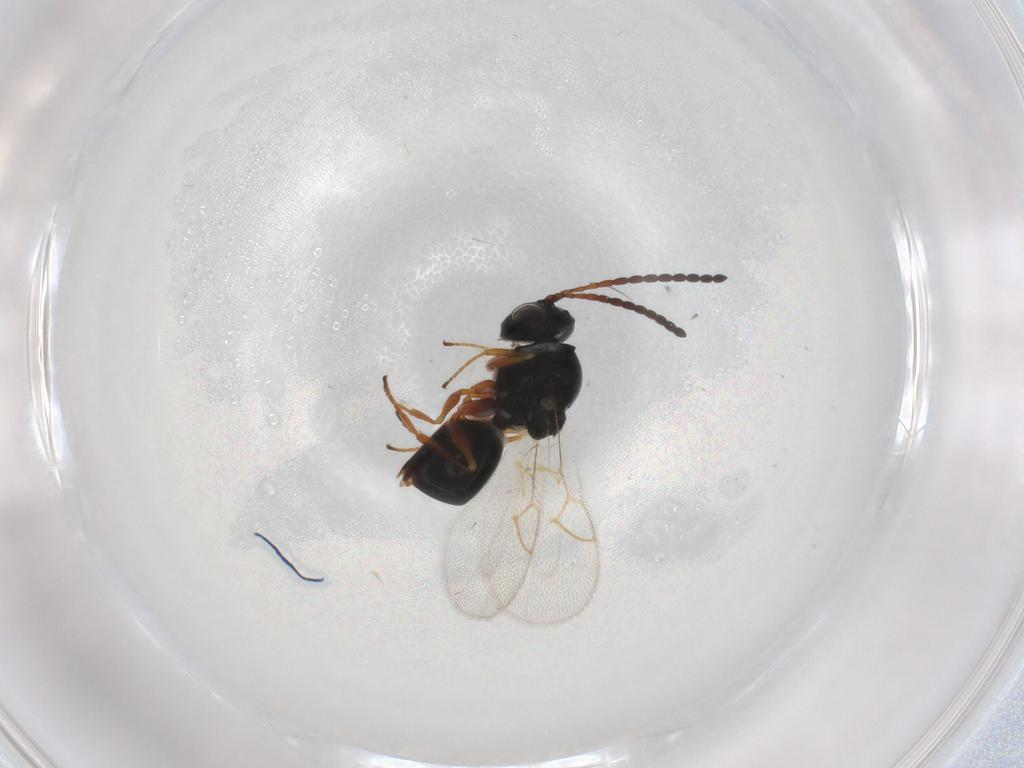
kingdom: Animalia
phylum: Arthropoda
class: Insecta
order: Hymenoptera
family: Figitidae
